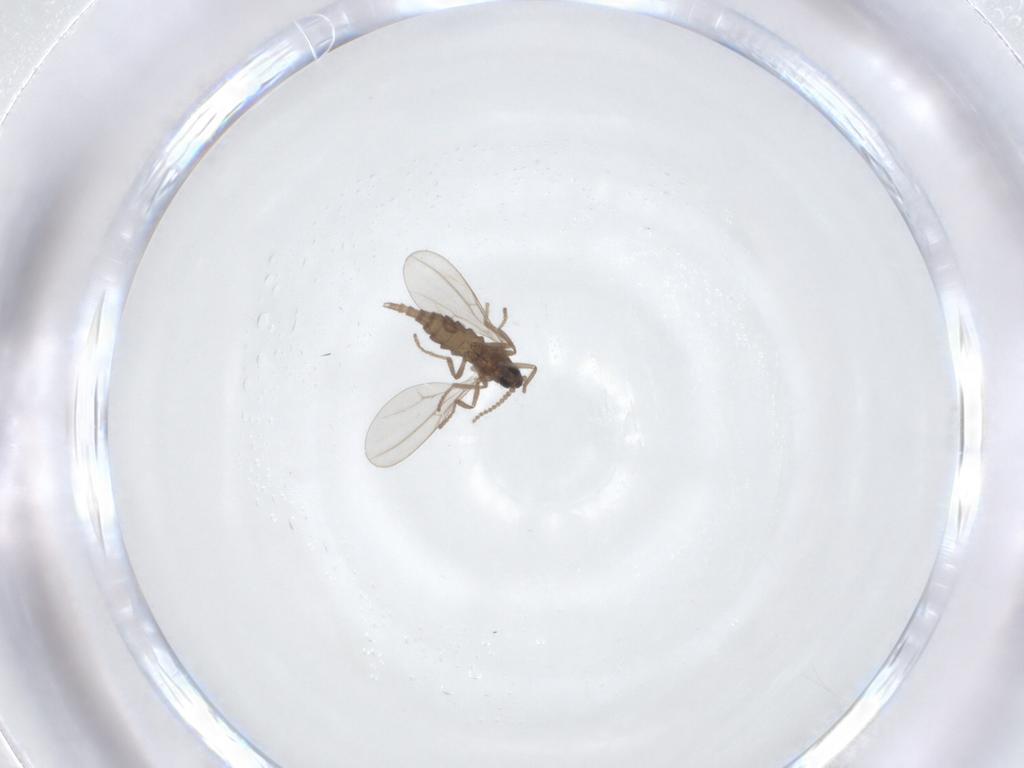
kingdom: Animalia
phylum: Arthropoda
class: Insecta
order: Diptera
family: Cecidomyiidae
